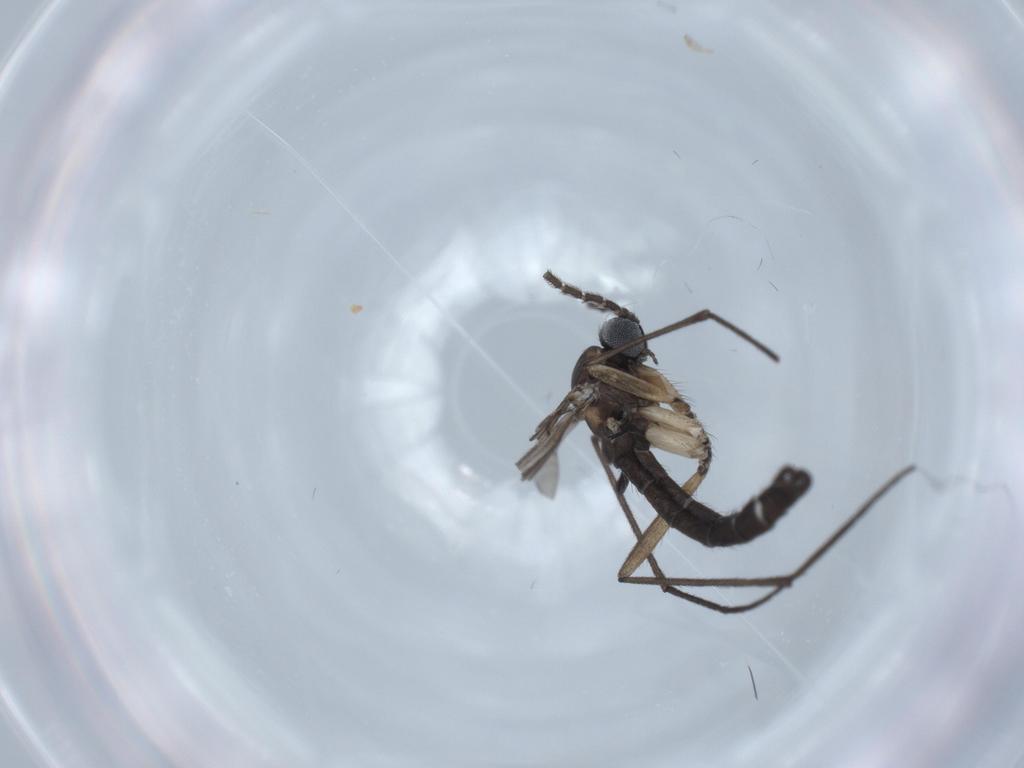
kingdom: Animalia
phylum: Arthropoda
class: Insecta
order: Diptera
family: Sciaridae
